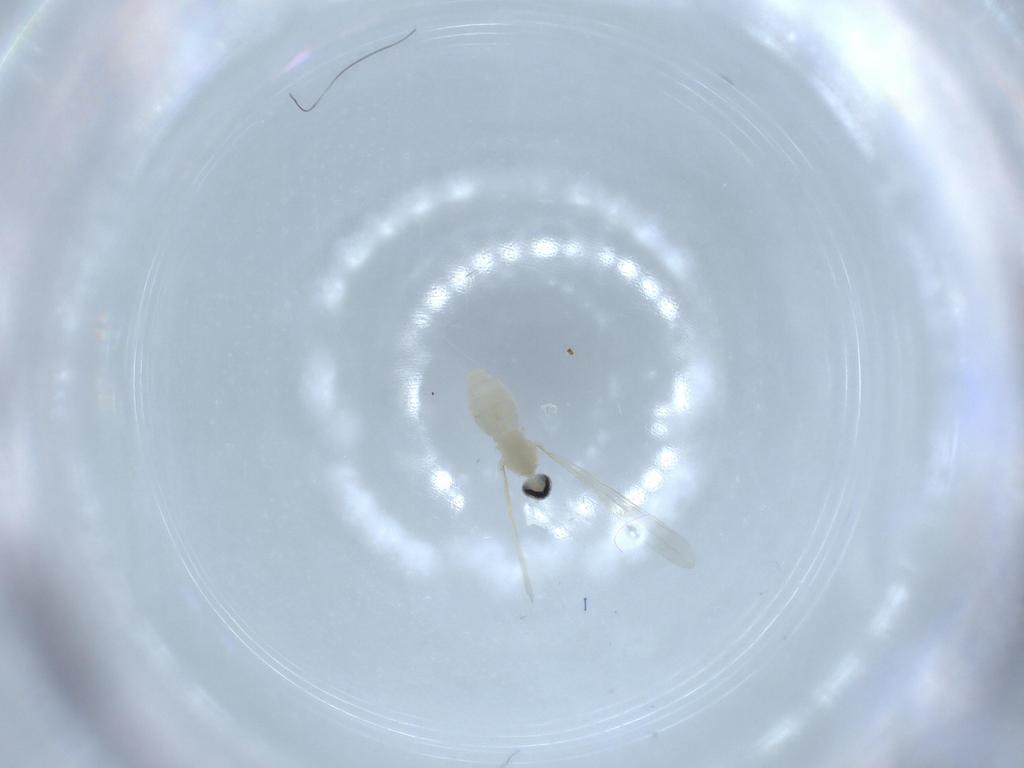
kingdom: Animalia
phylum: Arthropoda
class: Insecta
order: Diptera
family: Cecidomyiidae
